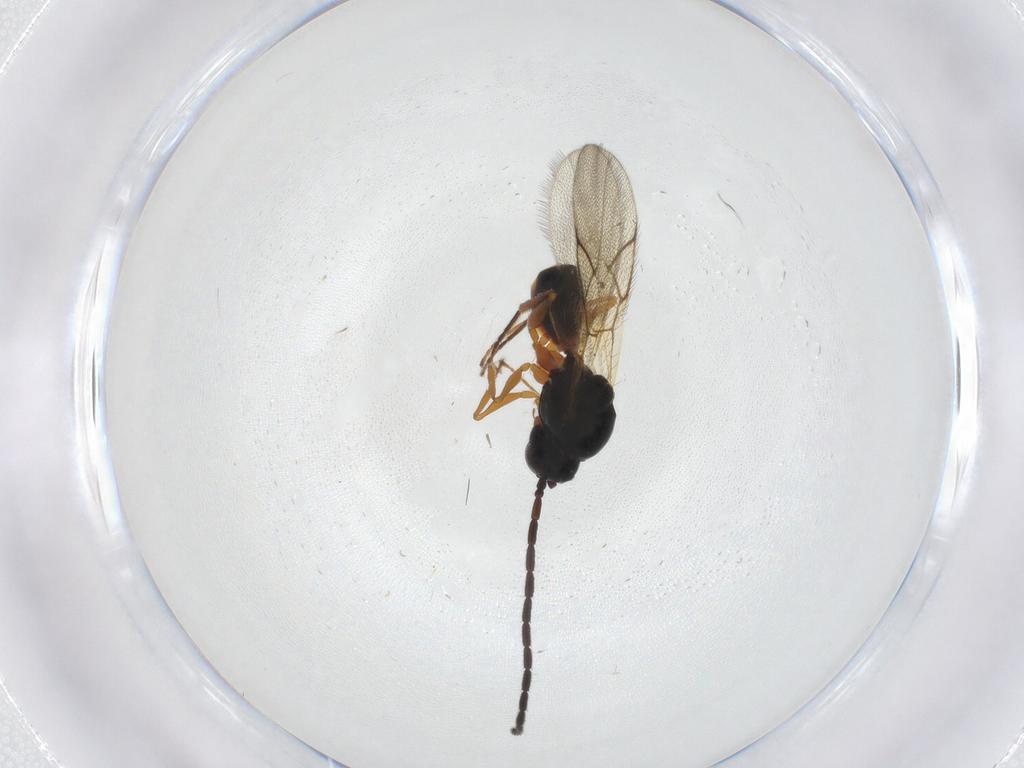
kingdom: Animalia
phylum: Arthropoda
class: Insecta
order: Hymenoptera
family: Figitidae
